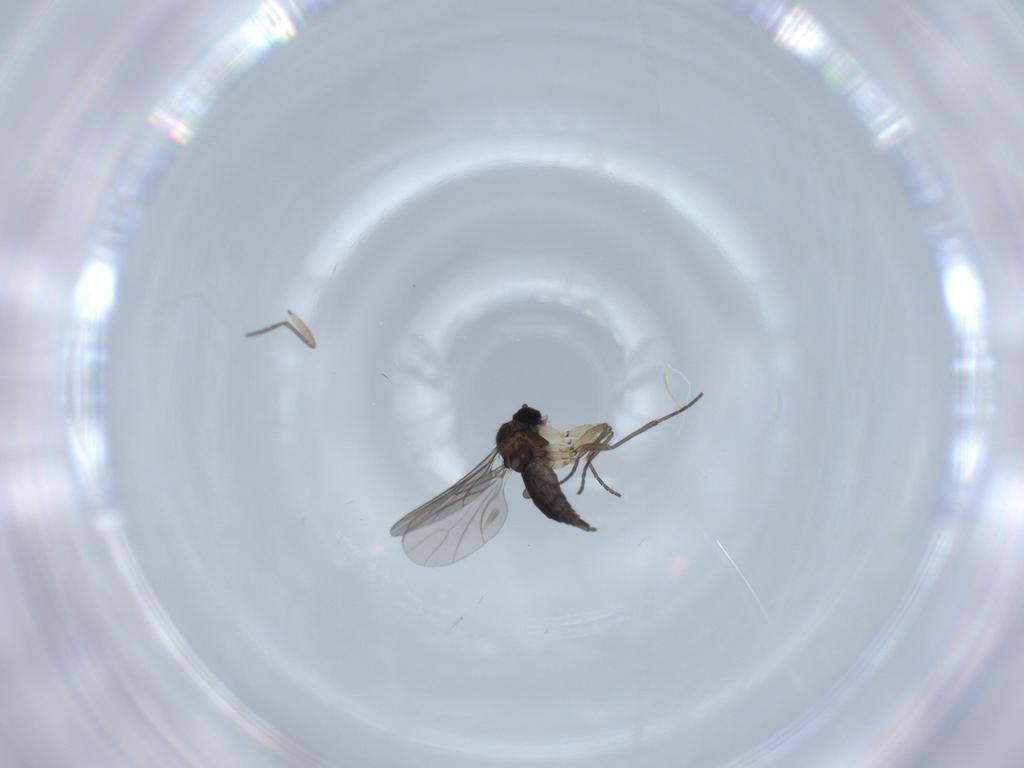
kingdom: Animalia
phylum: Arthropoda
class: Insecta
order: Diptera
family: Sciaridae
